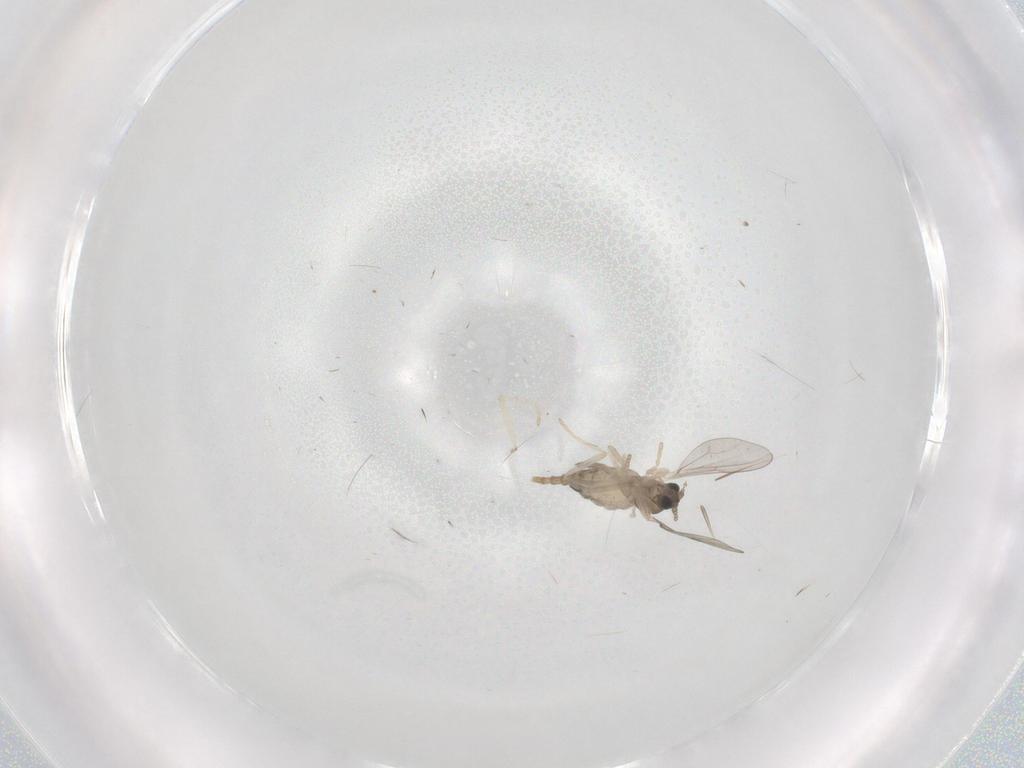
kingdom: Animalia
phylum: Arthropoda
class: Insecta
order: Diptera
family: Cecidomyiidae
